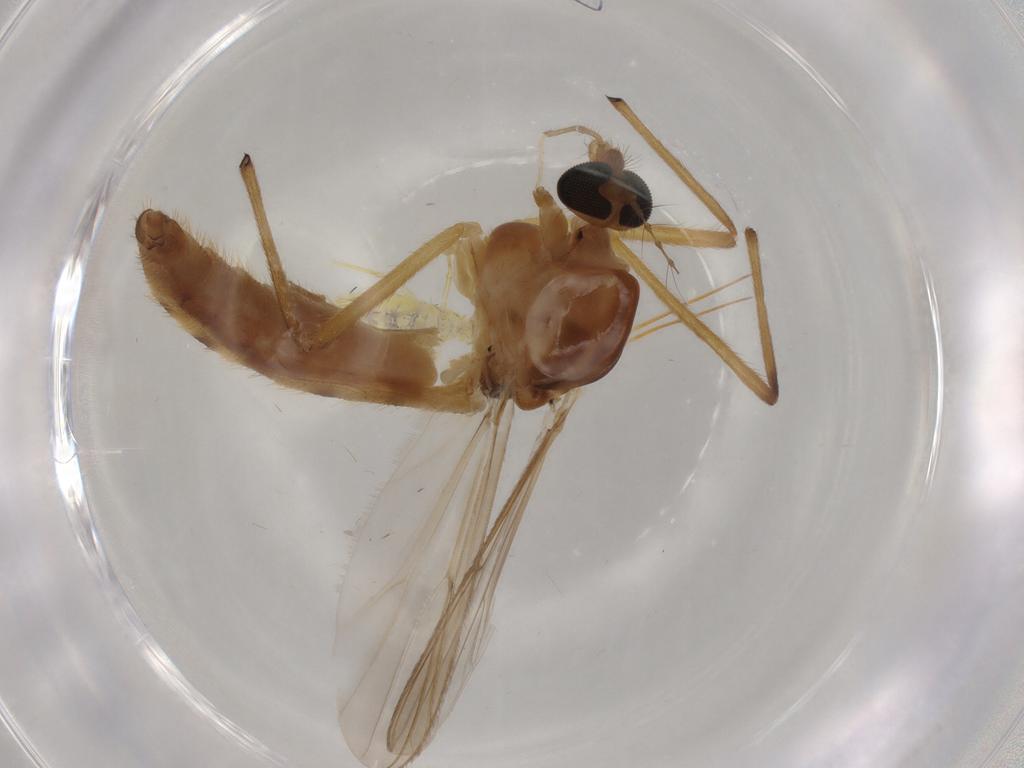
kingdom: Animalia
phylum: Arthropoda
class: Insecta
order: Diptera
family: Chironomidae
